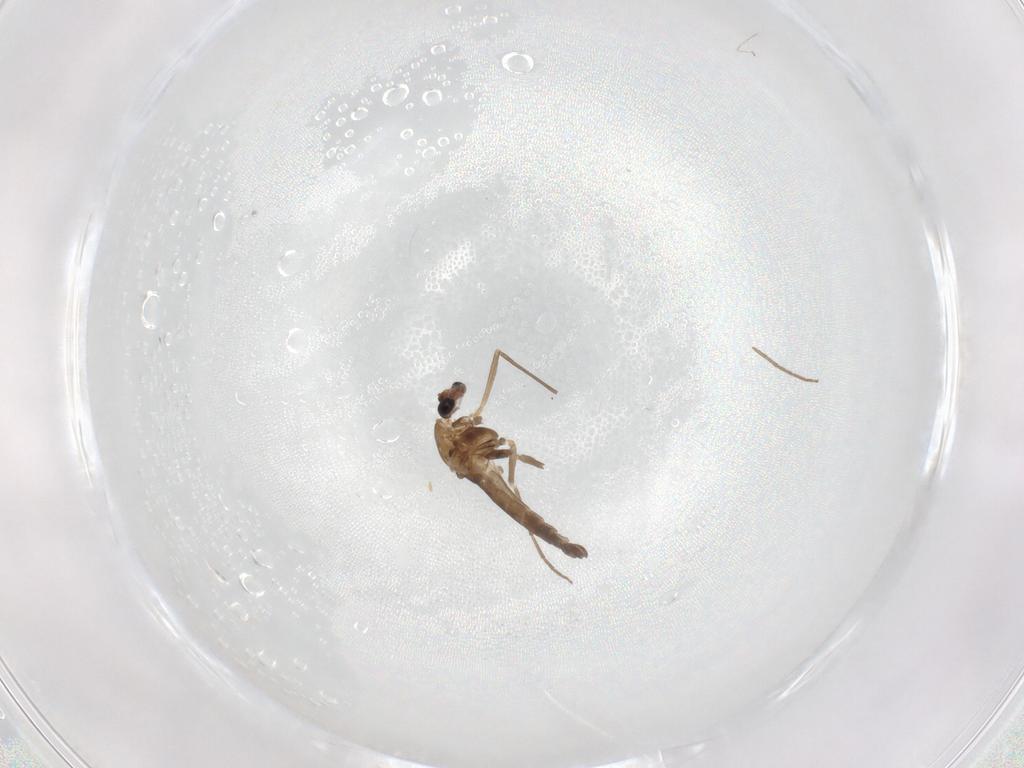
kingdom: Animalia
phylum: Arthropoda
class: Insecta
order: Diptera
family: Chironomidae
